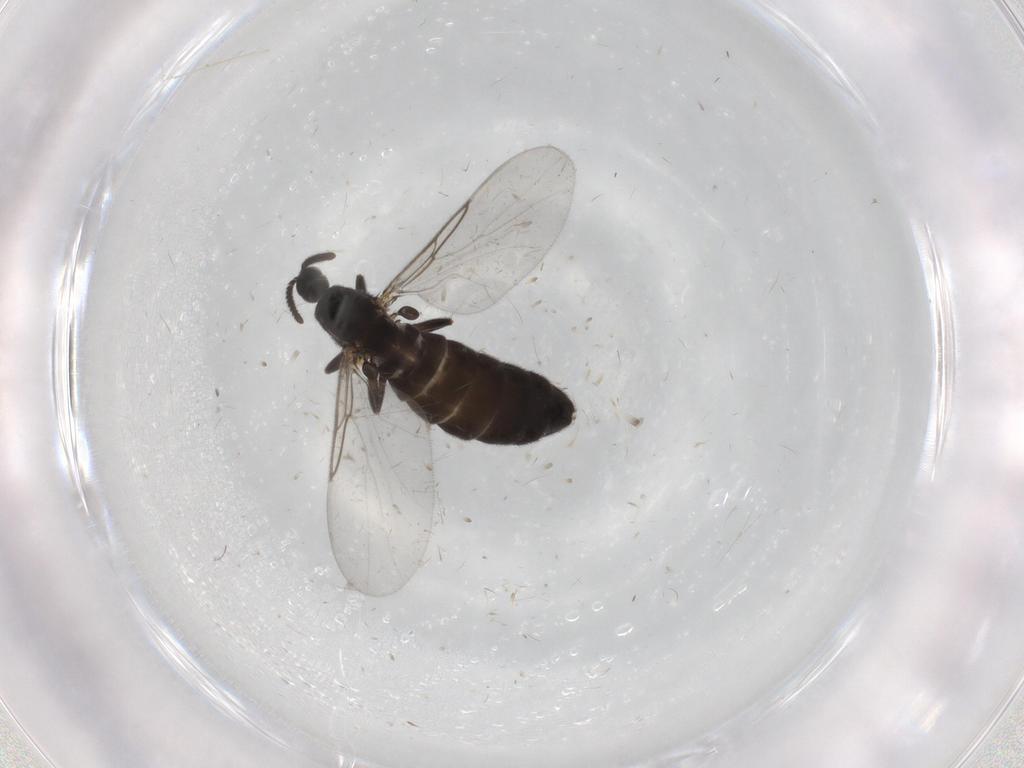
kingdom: Animalia
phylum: Arthropoda
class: Insecta
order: Diptera
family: Scatopsidae
